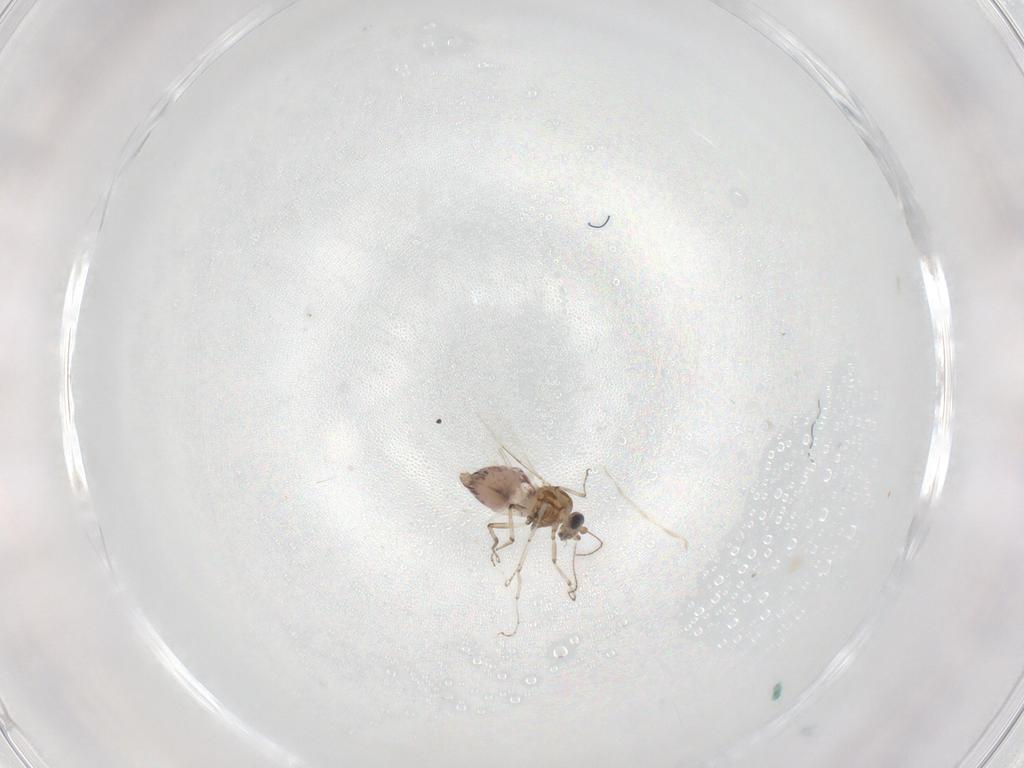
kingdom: Animalia
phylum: Arthropoda
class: Insecta
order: Diptera
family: Ceratopogonidae
